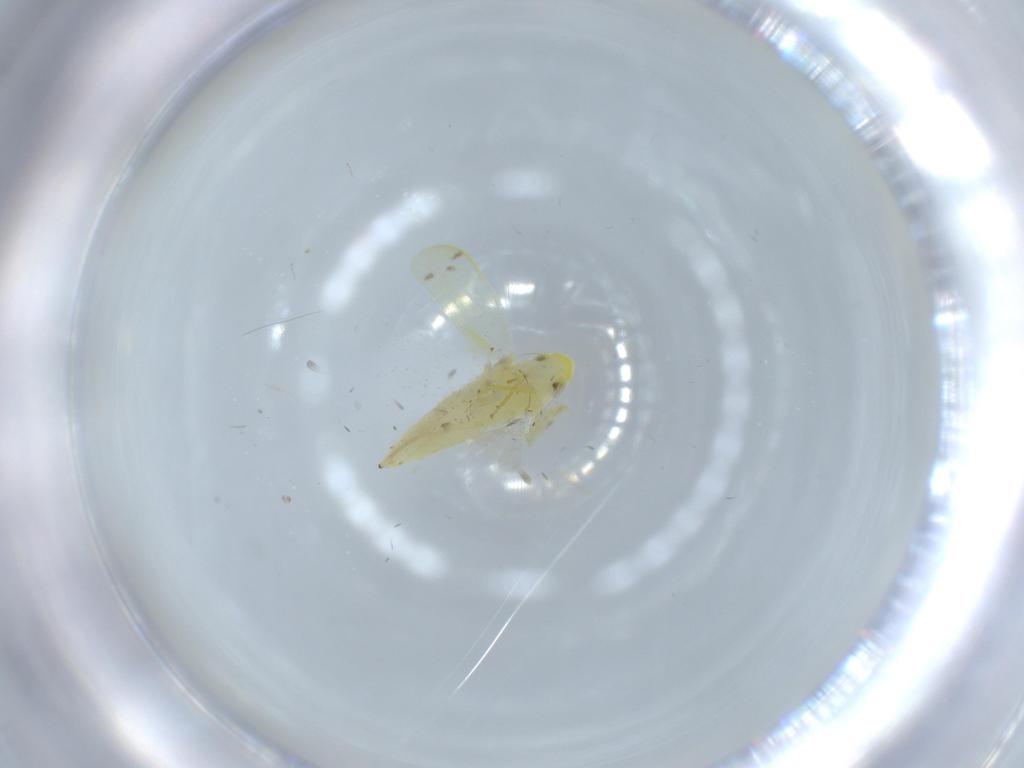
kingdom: Animalia
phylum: Arthropoda
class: Insecta
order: Hemiptera
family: Cicadellidae
